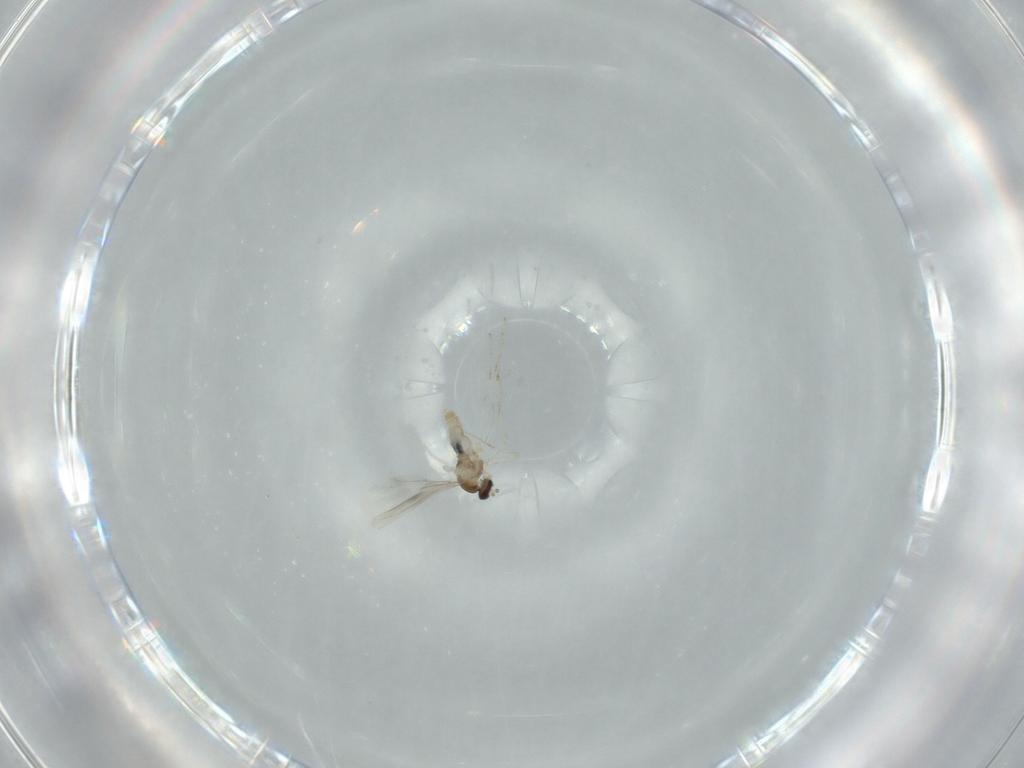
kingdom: Animalia
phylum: Arthropoda
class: Insecta
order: Diptera
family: Cecidomyiidae
